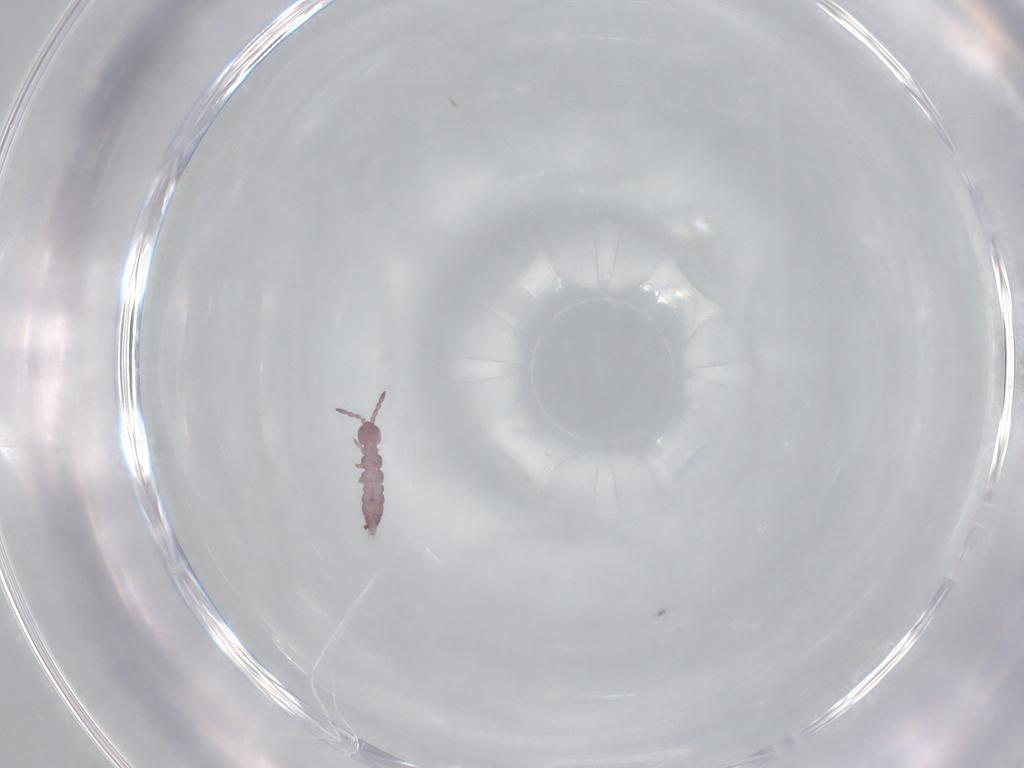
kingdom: Animalia
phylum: Arthropoda
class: Collembola
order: Entomobryomorpha
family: Isotomidae
